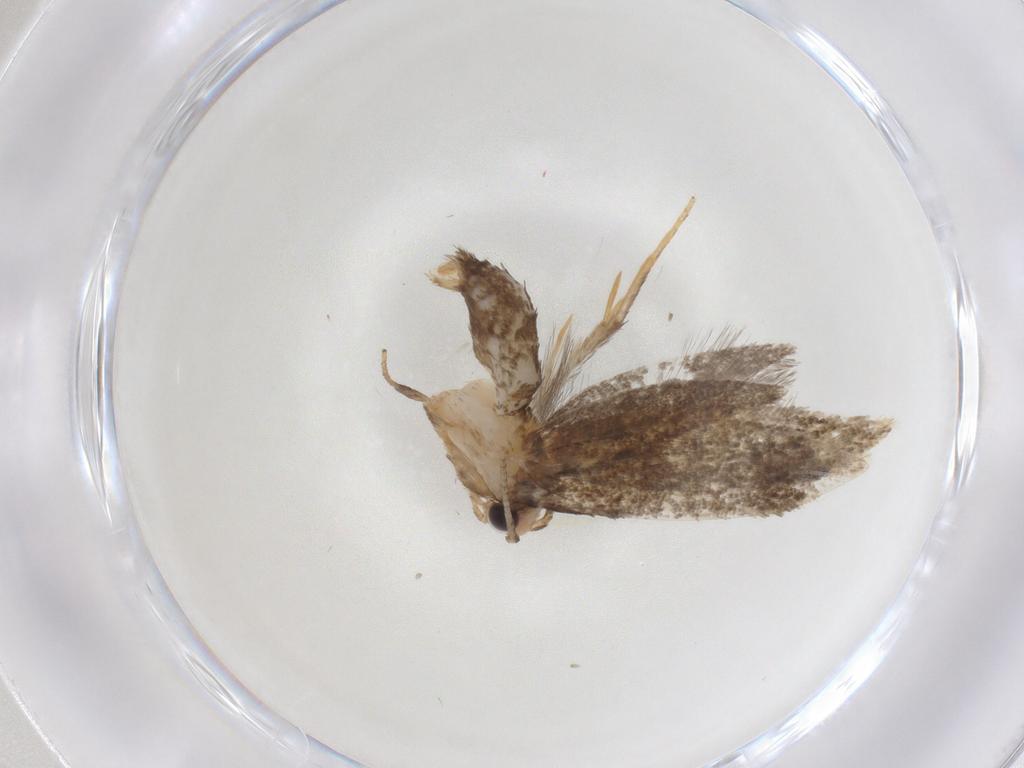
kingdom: Animalia
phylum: Arthropoda
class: Insecta
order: Lepidoptera
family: Tineidae
